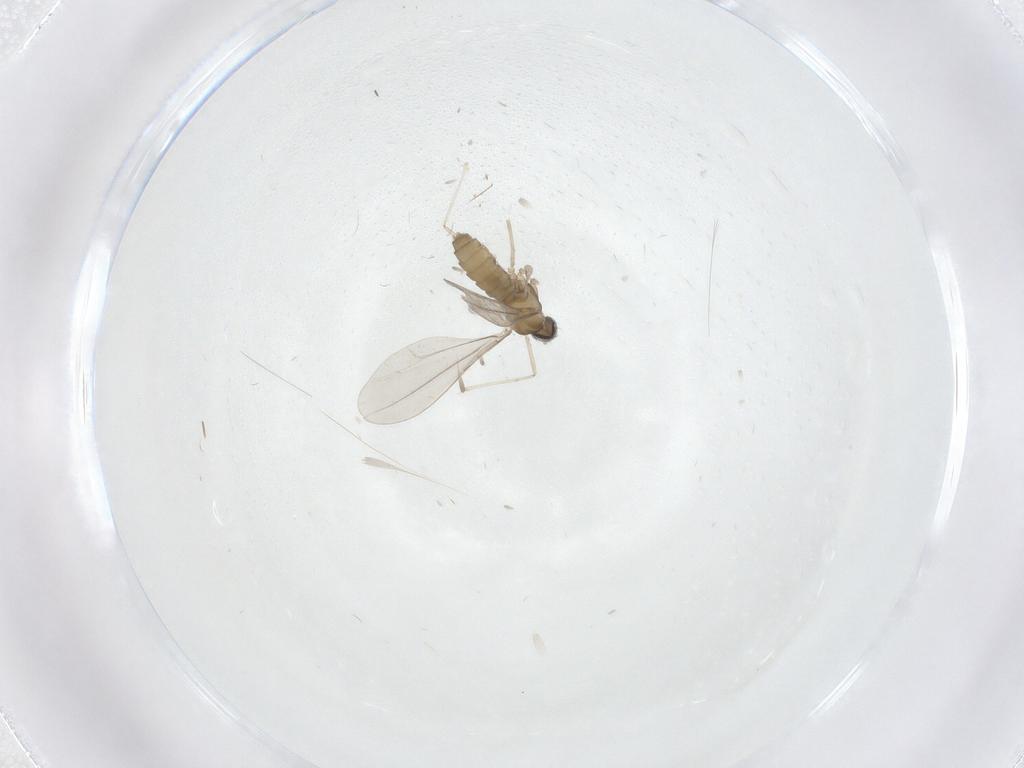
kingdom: Animalia
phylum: Arthropoda
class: Insecta
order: Diptera
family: Cecidomyiidae
